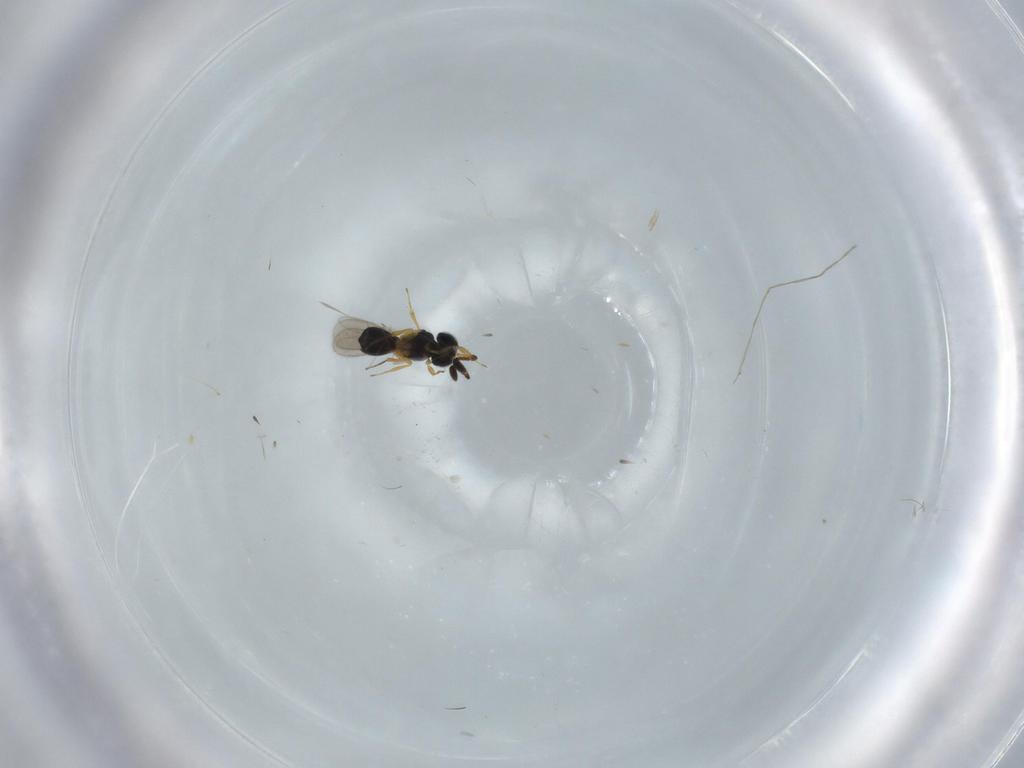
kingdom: Animalia
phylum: Arthropoda
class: Insecta
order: Hymenoptera
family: Scelionidae
